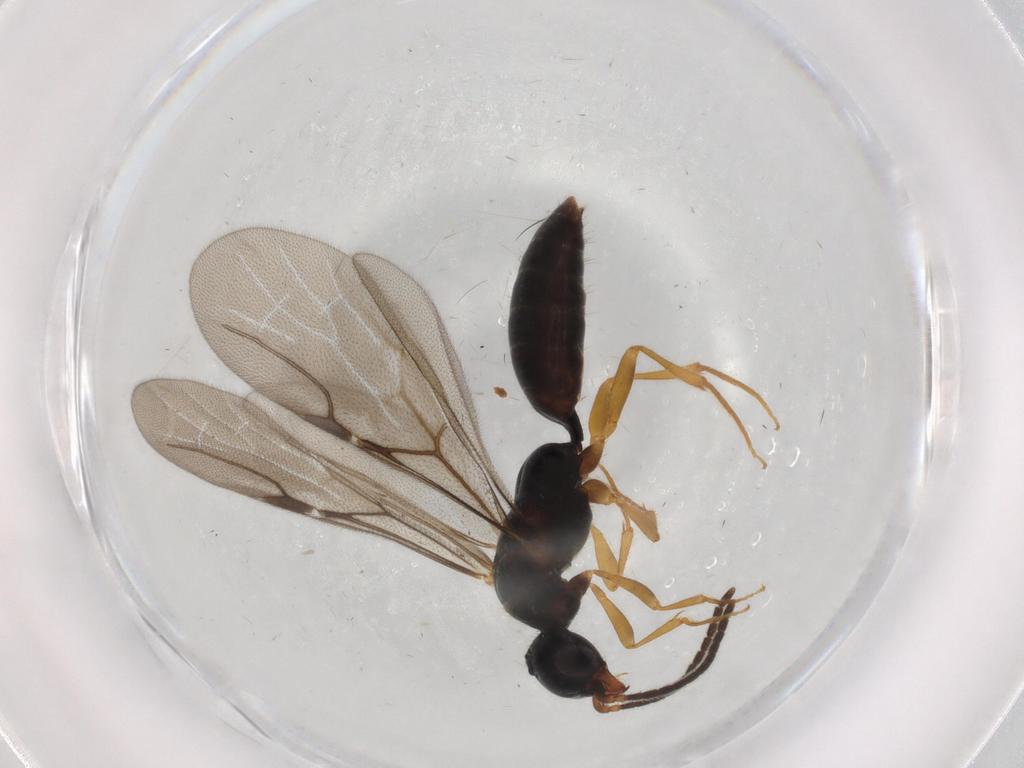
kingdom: Animalia
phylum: Arthropoda
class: Insecta
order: Hymenoptera
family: Bethylidae
